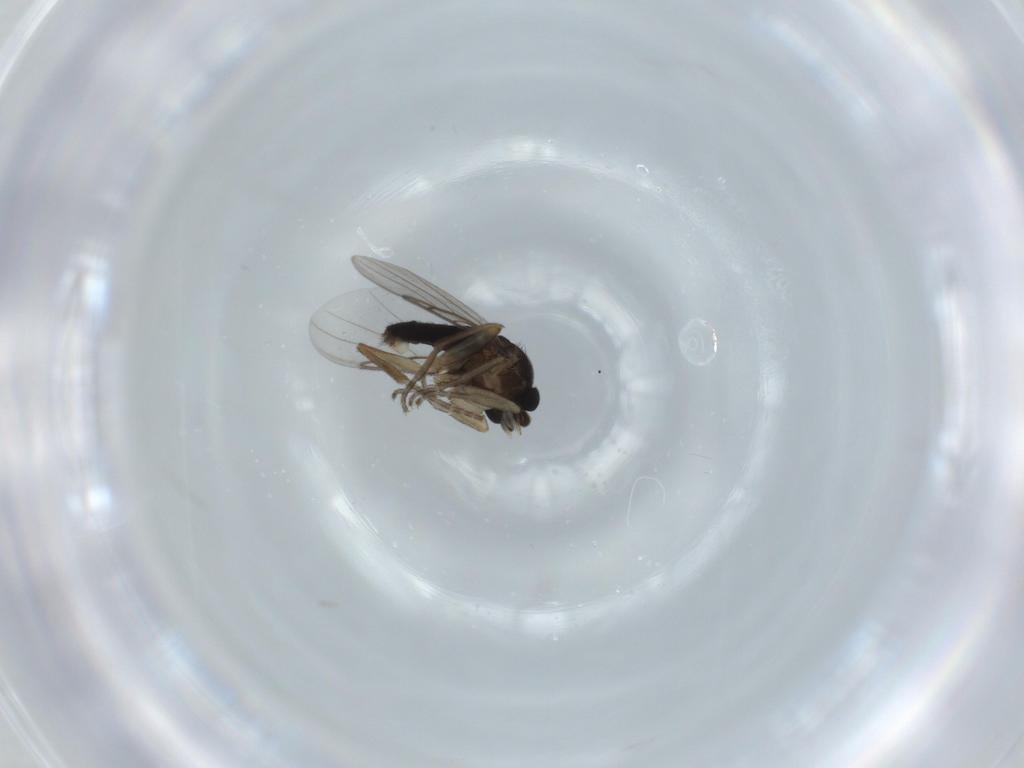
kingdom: Animalia
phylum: Arthropoda
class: Insecta
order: Diptera
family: Phoridae
